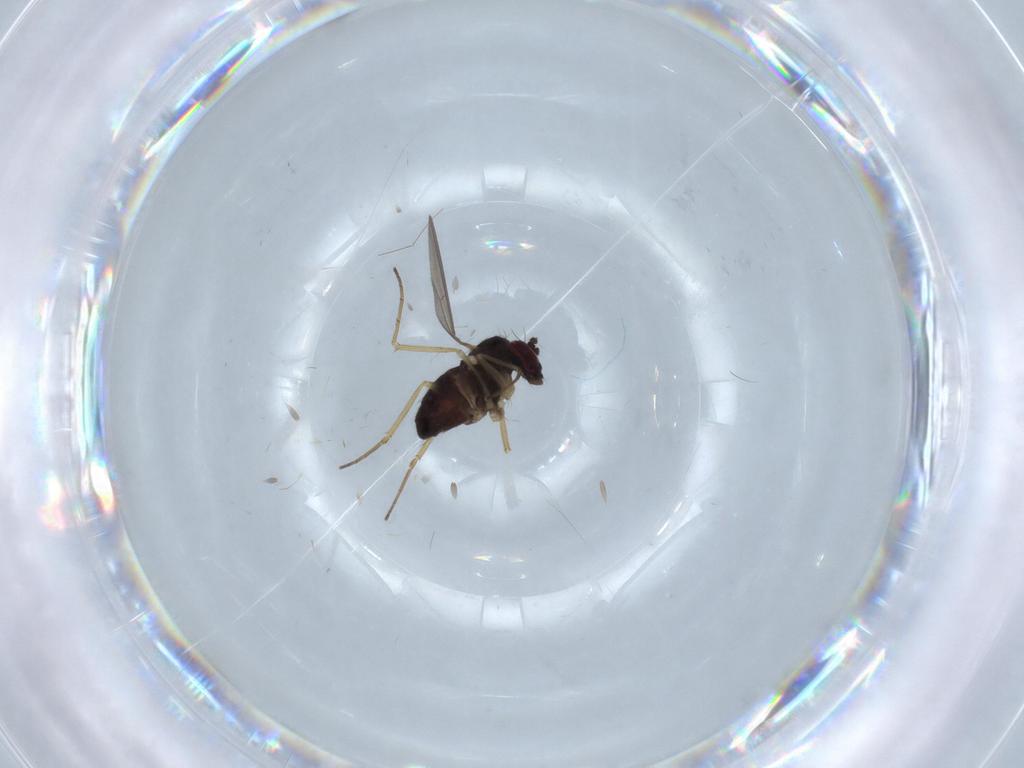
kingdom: Animalia
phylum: Arthropoda
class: Insecta
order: Diptera
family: Dolichopodidae
